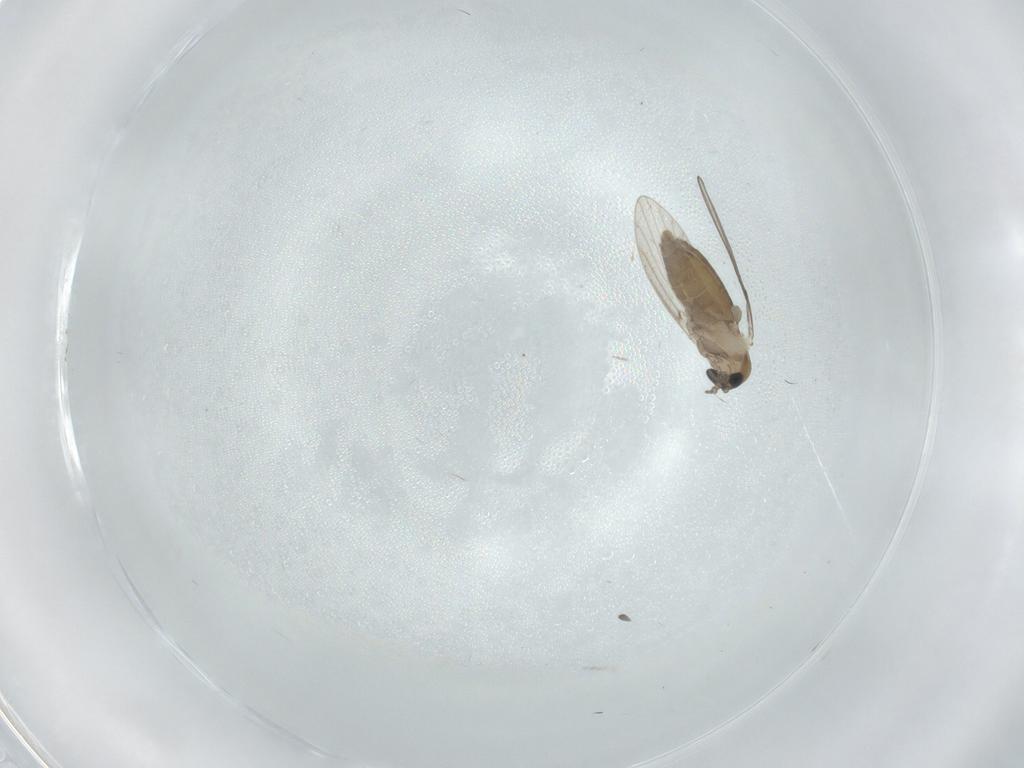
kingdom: Animalia
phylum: Arthropoda
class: Insecta
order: Diptera
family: Psychodidae
